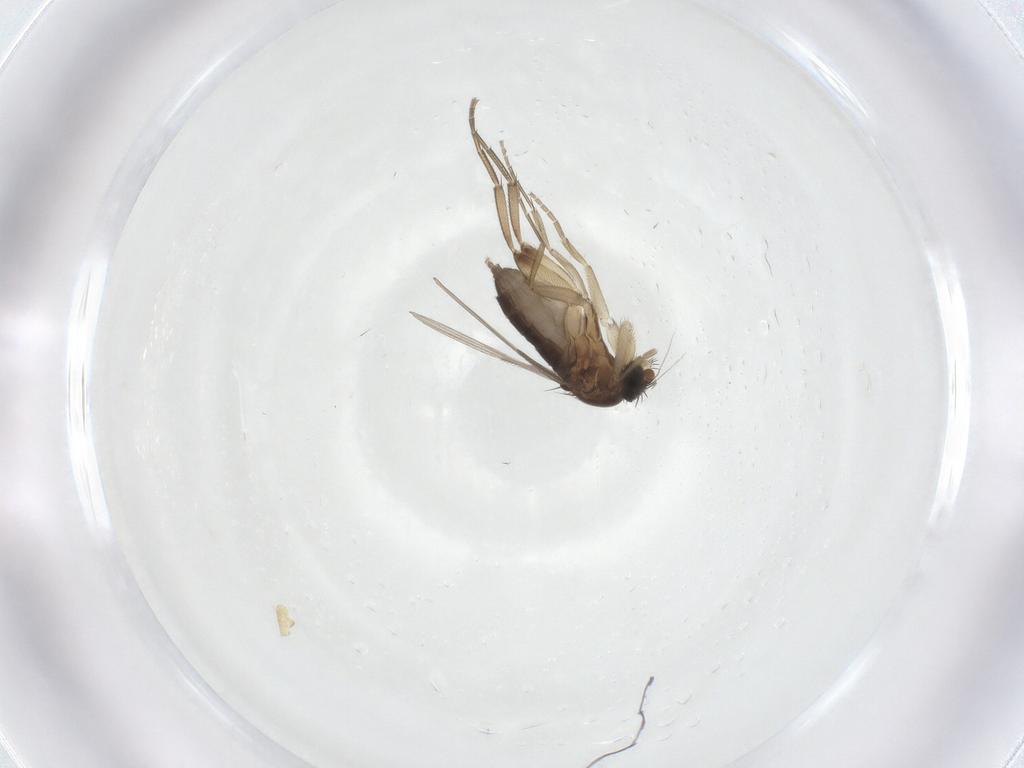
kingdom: Animalia
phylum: Arthropoda
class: Insecta
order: Diptera
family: Phoridae
